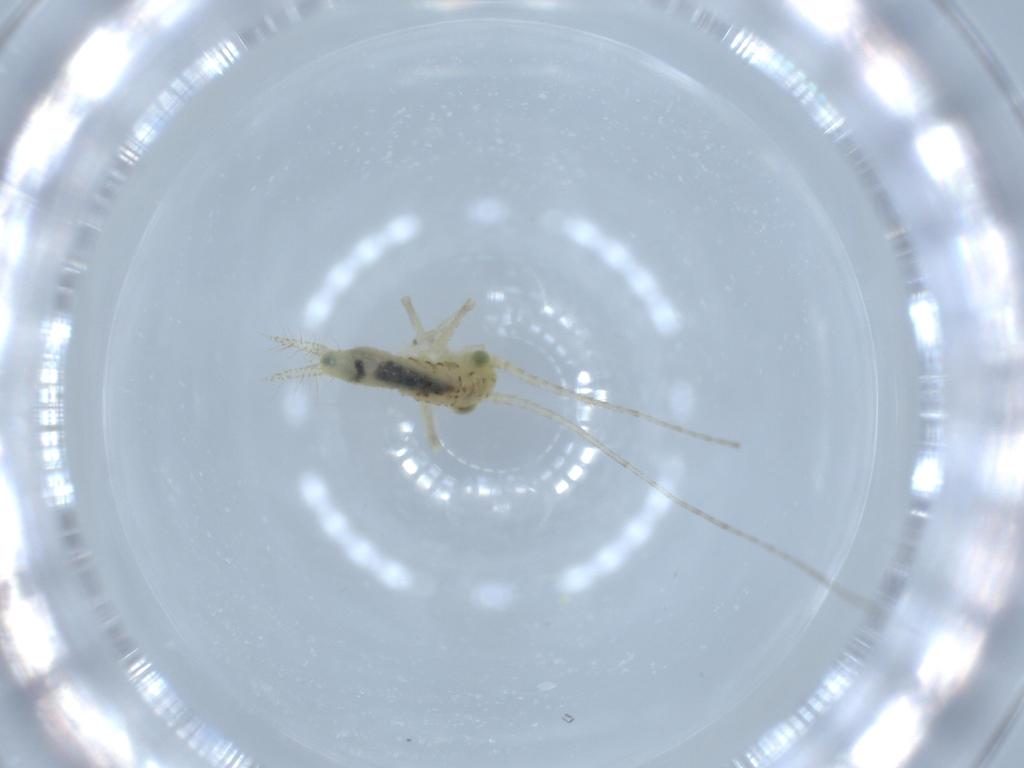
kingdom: Animalia
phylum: Arthropoda
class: Insecta
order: Orthoptera
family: Trigonidiidae
